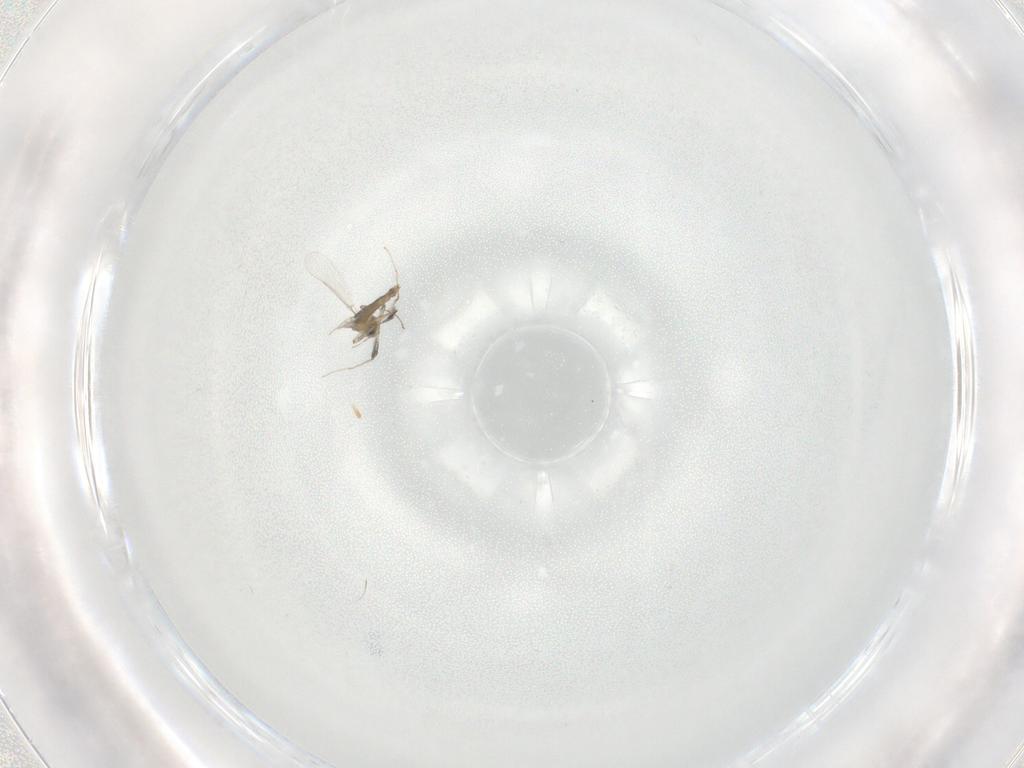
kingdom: Animalia
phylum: Arthropoda
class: Insecta
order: Diptera
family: Chironomidae
